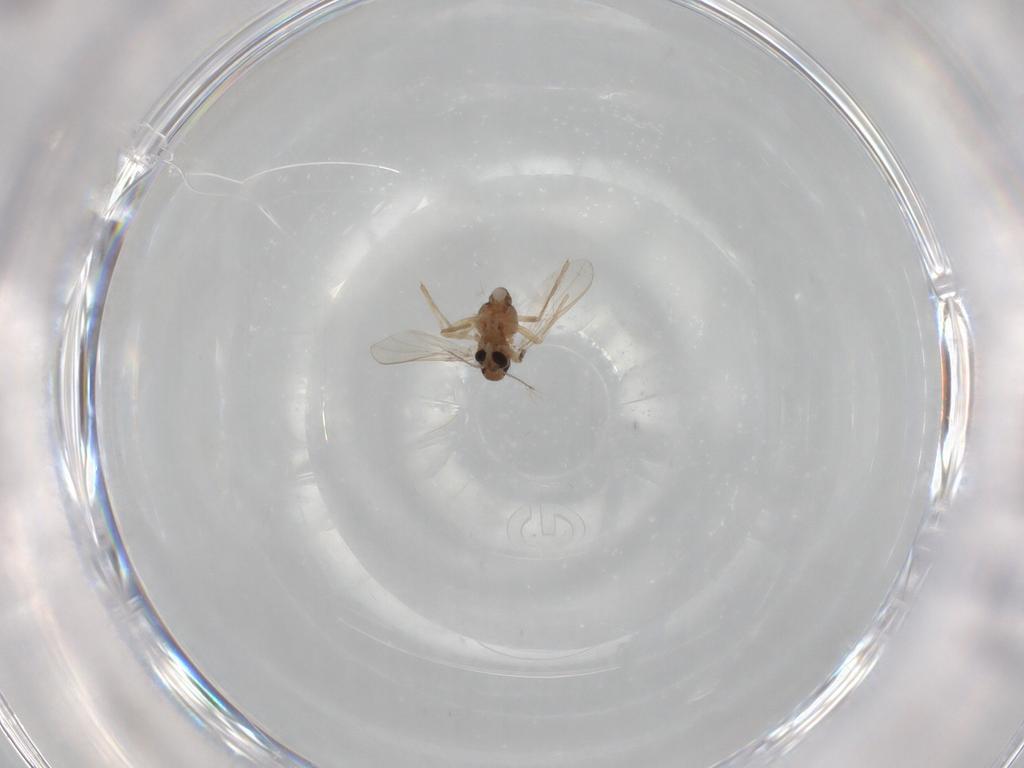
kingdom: Animalia
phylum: Arthropoda
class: Insecta
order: Diptera
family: Chironomidae
